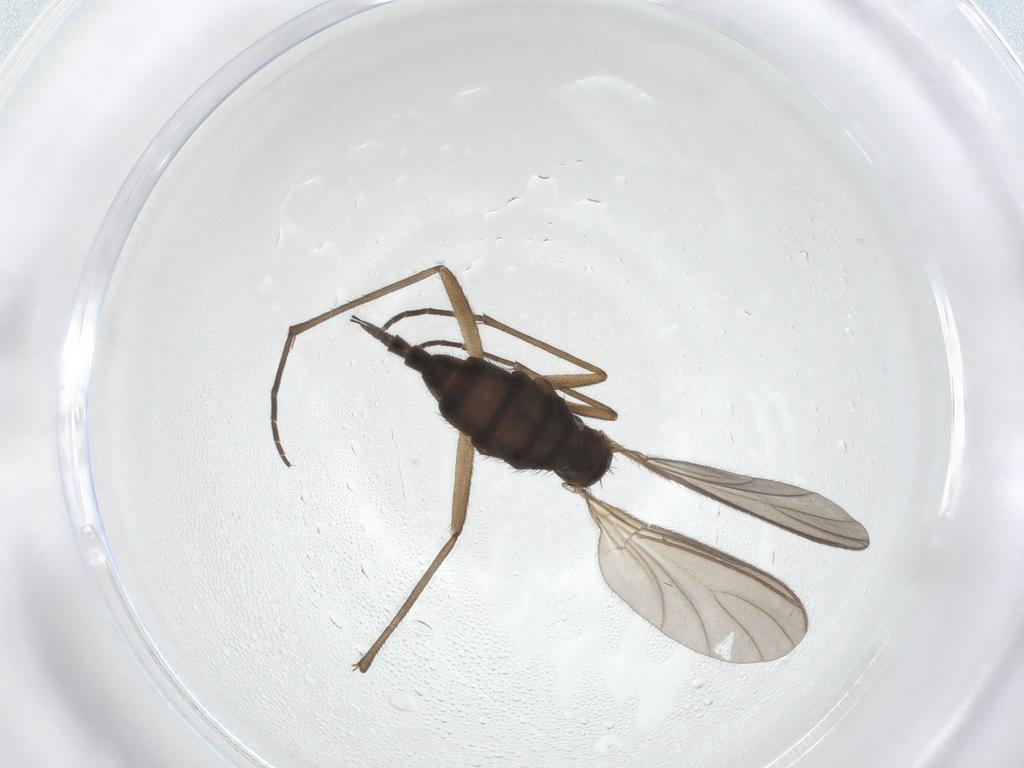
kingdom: Animalia
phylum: Arthropoda
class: Insecta
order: Diptera
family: Sciaridae
